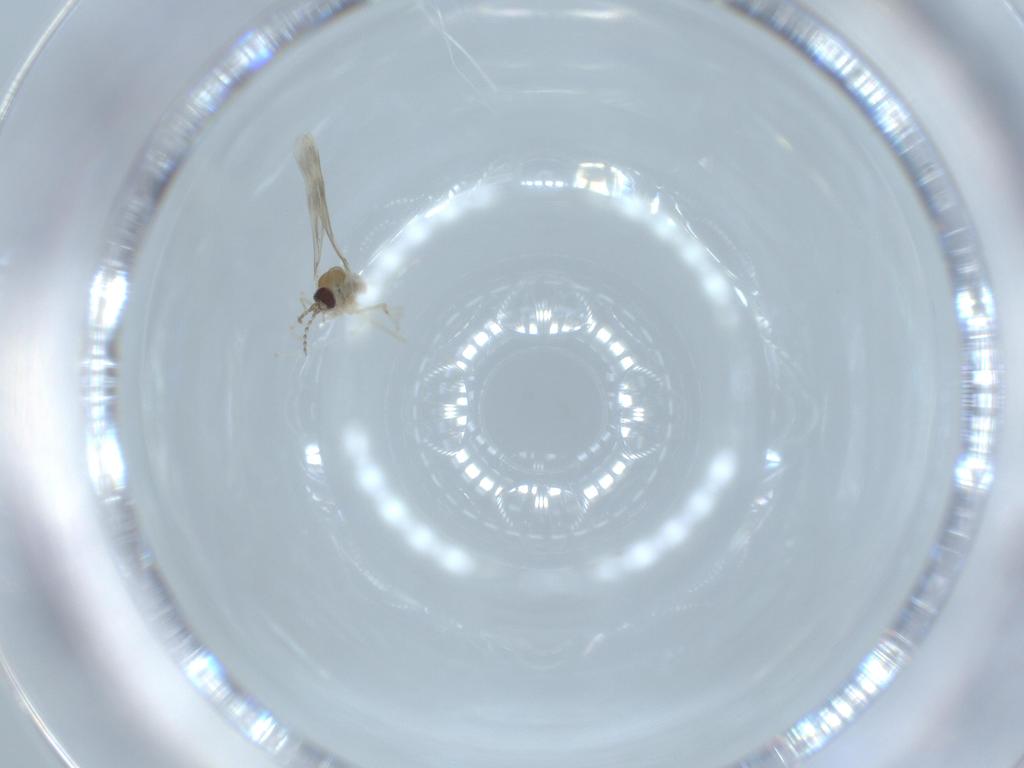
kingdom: Animalia
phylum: Arthropoda
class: Insecta
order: Diptera
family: Cecidomyiidae
